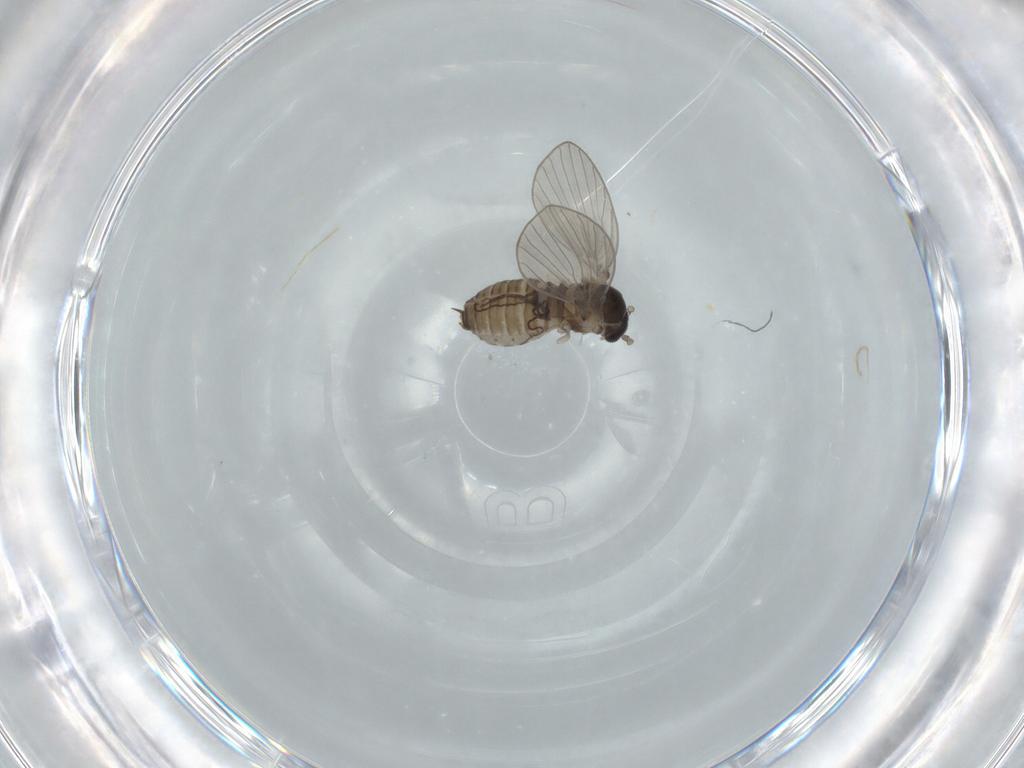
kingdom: Animalia
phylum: Arthropoda
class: Insecta
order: Diptera
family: Psychodidae
